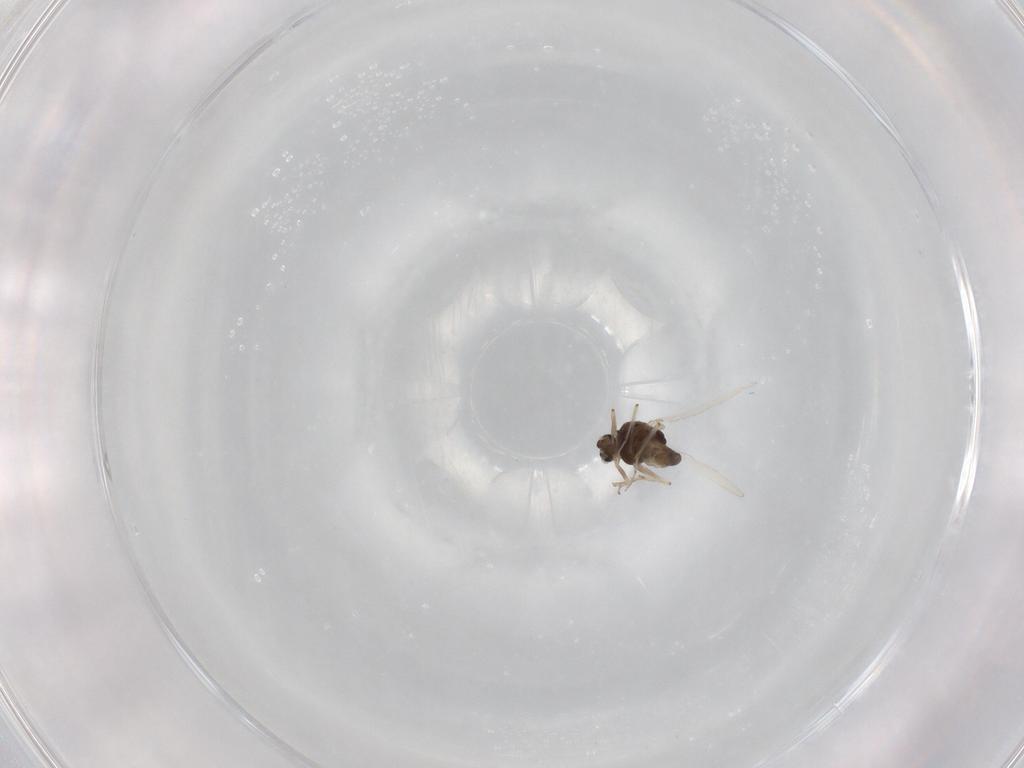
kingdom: Animalia
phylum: Arthropoda
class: Insecta
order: Diptera
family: Chironomidae
